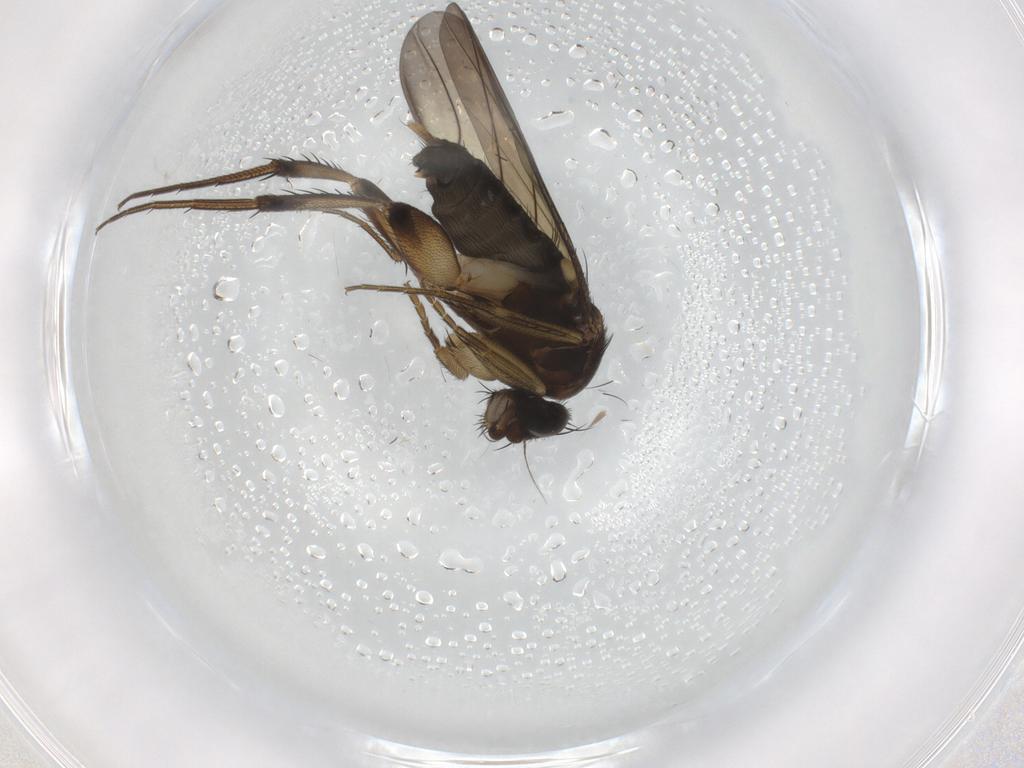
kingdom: Animalia
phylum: Arthropoda
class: Insecta
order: Diptera
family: Phoridae
